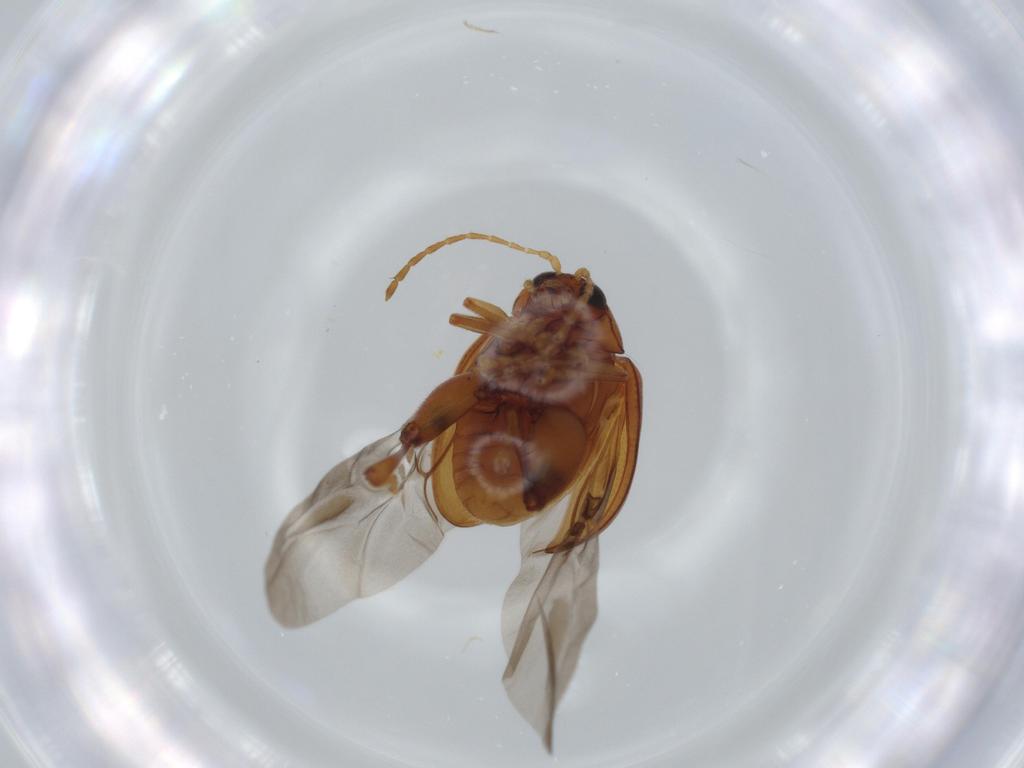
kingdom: Animalia
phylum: Arthropoda
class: Insecta
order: Coleoptera
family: Chrysomelidae
